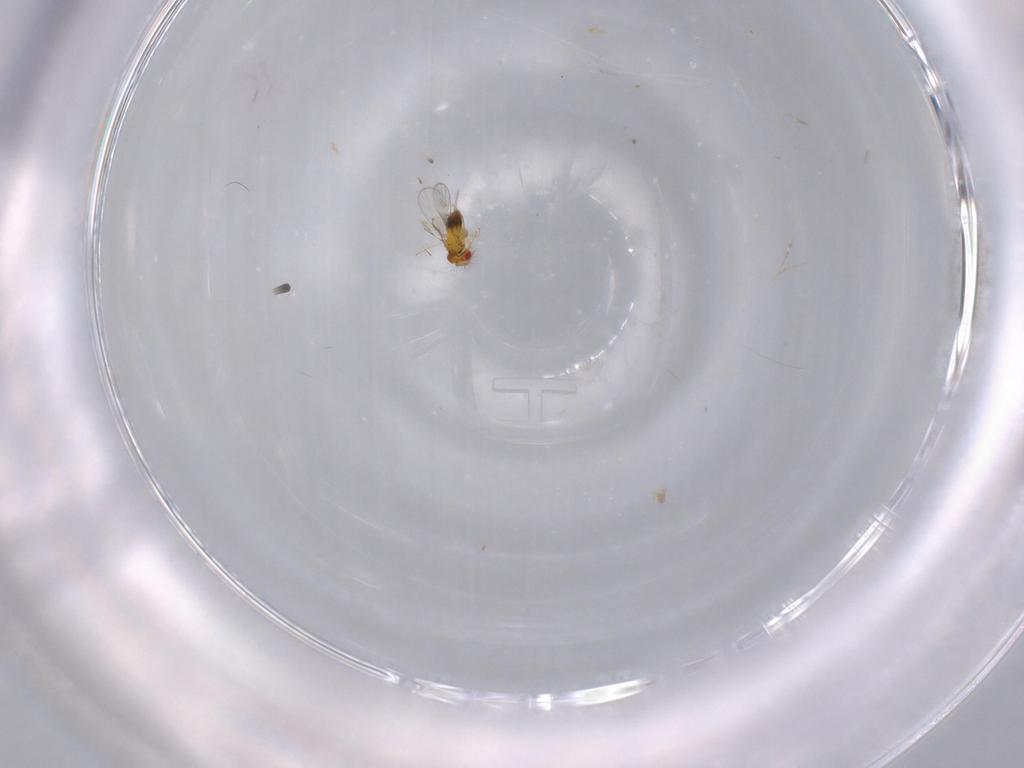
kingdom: Animalia
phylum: Arthropoda
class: Insecta
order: Hymenoptera
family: Trichogrammatidae
